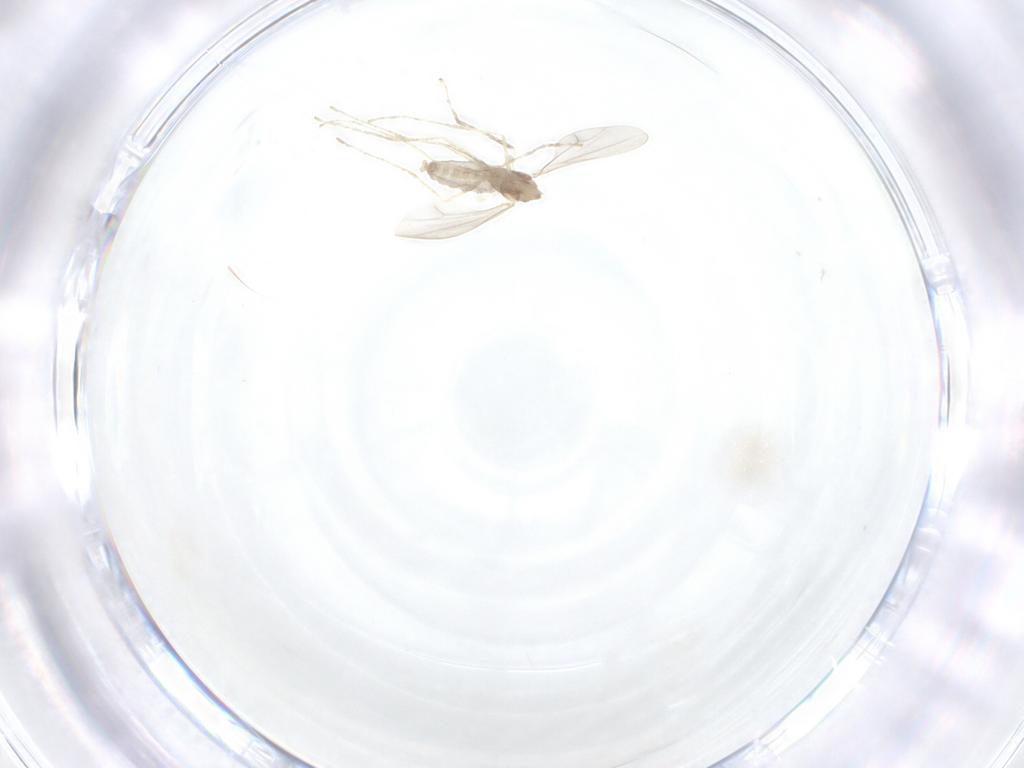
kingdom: Animalia
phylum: Arthropoda
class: Insecta
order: Diptera
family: Cecidomyiidae
